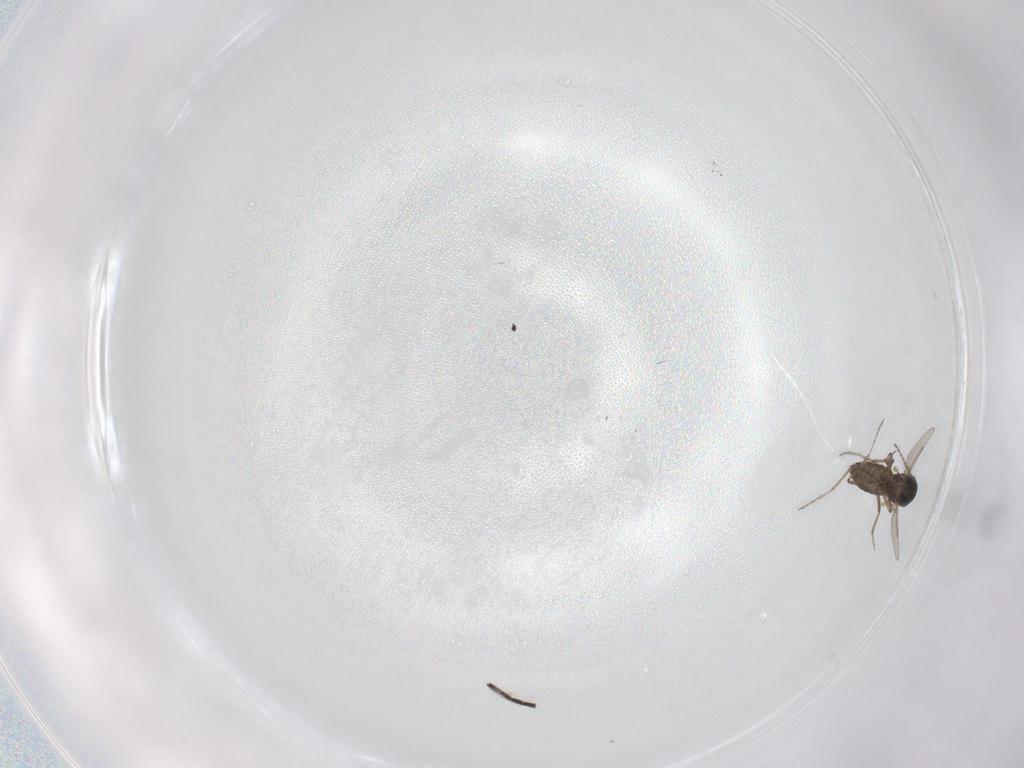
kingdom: Animalia
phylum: Arthropoda
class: Insecta
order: Diptera
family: Ceratopogonidae
